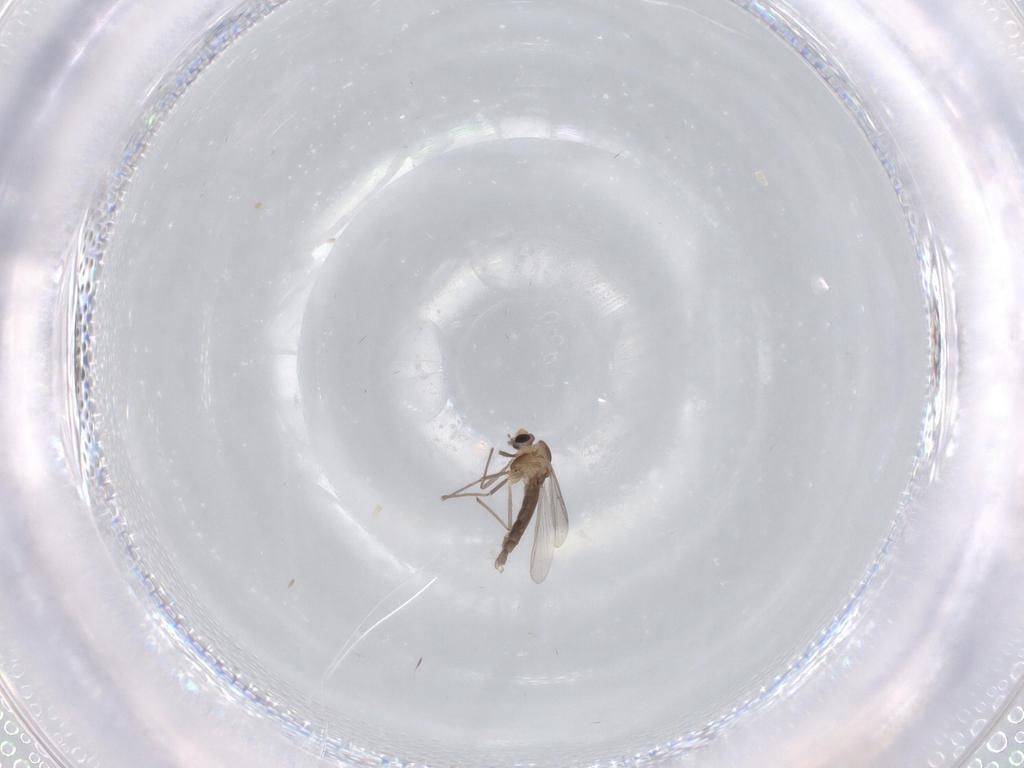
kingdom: Animalia
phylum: Arthropoda
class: Insecta
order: Diptera
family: Chironomidae
